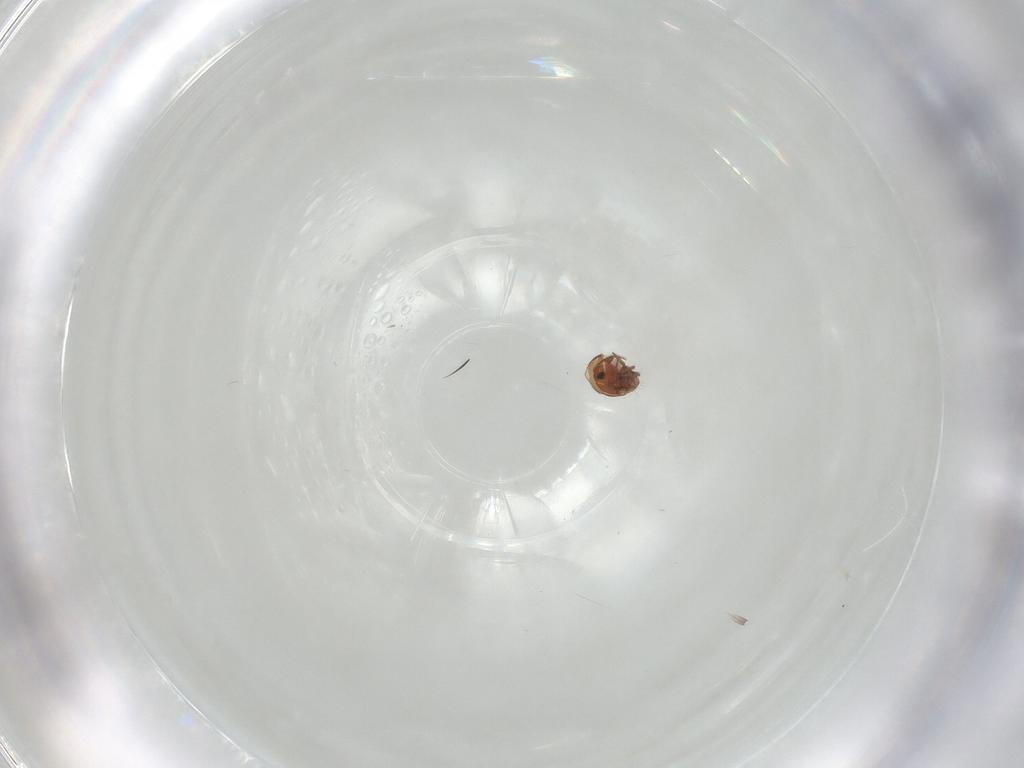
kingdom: Animalia
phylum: Arthropoda
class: Arachnida
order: Sarcoptiformes
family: Oribatulidae
